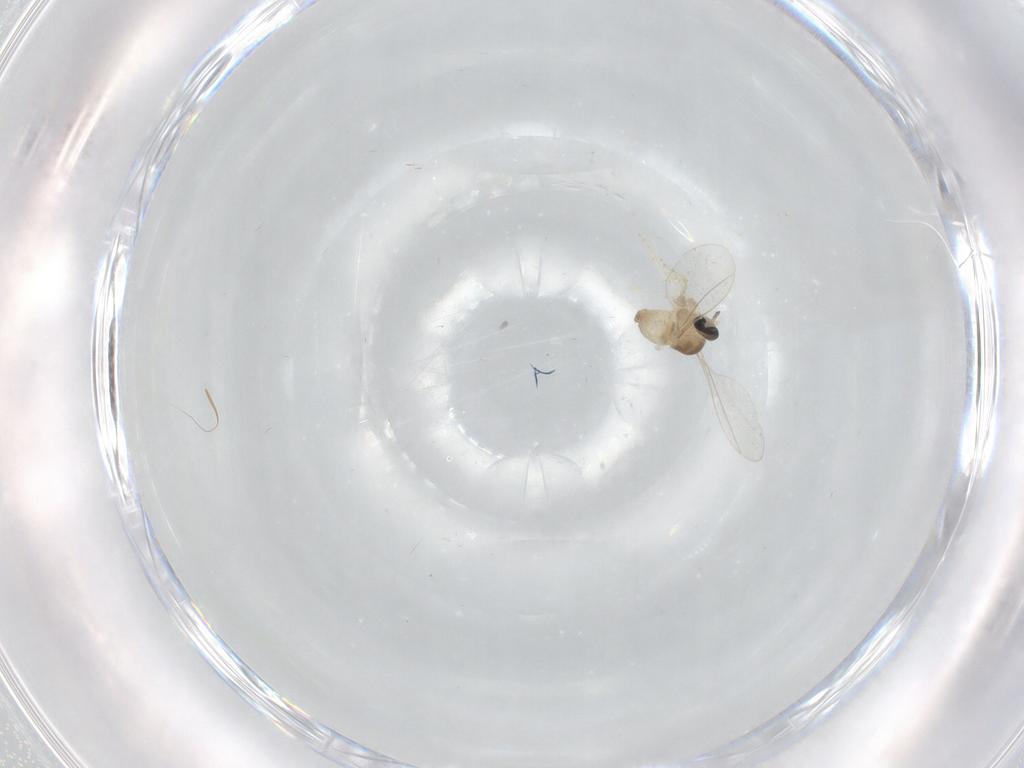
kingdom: Animalia
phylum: Arthropoda
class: Insecta
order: Diptera
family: Cecidomyiidae
